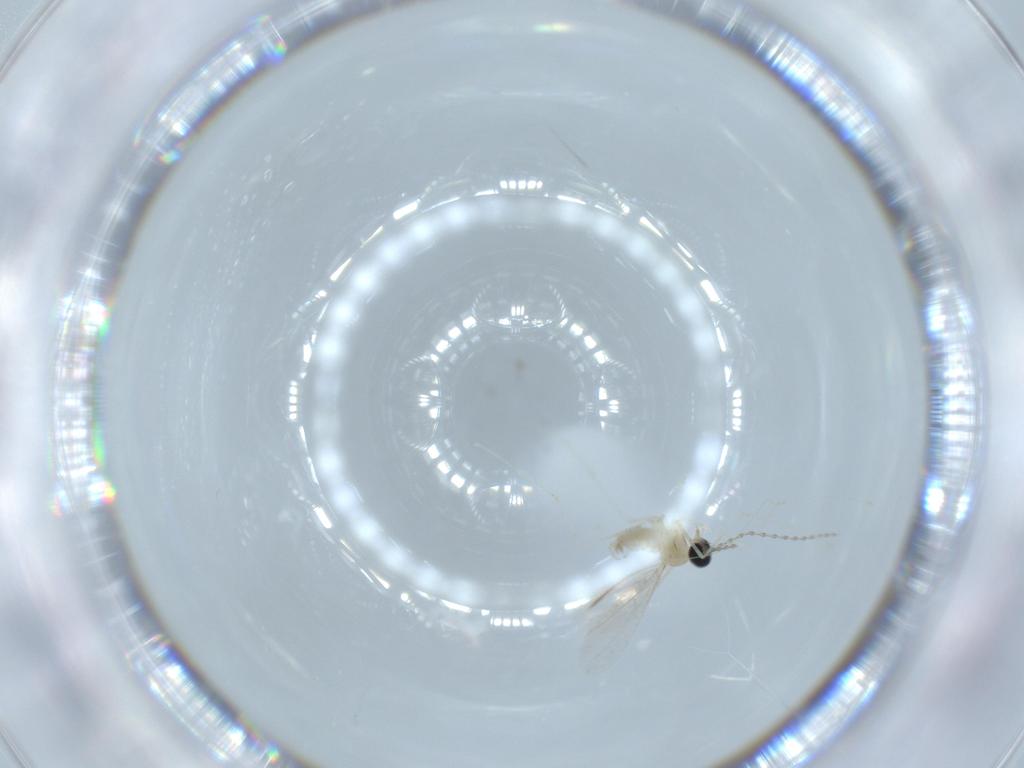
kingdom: Animalia
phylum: Arthropoda
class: Insecta
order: Diptera
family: Cecidomyiidae
